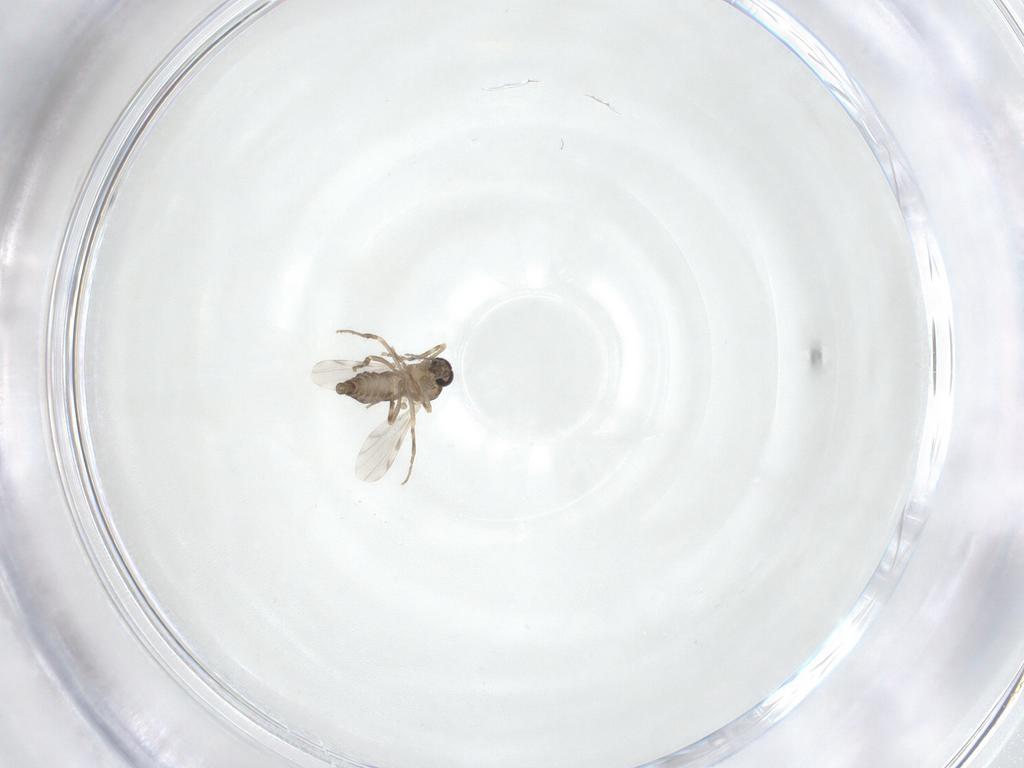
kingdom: Animalia
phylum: Arthropoda
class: Insecta
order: Diptera
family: Ceratopogonidae
